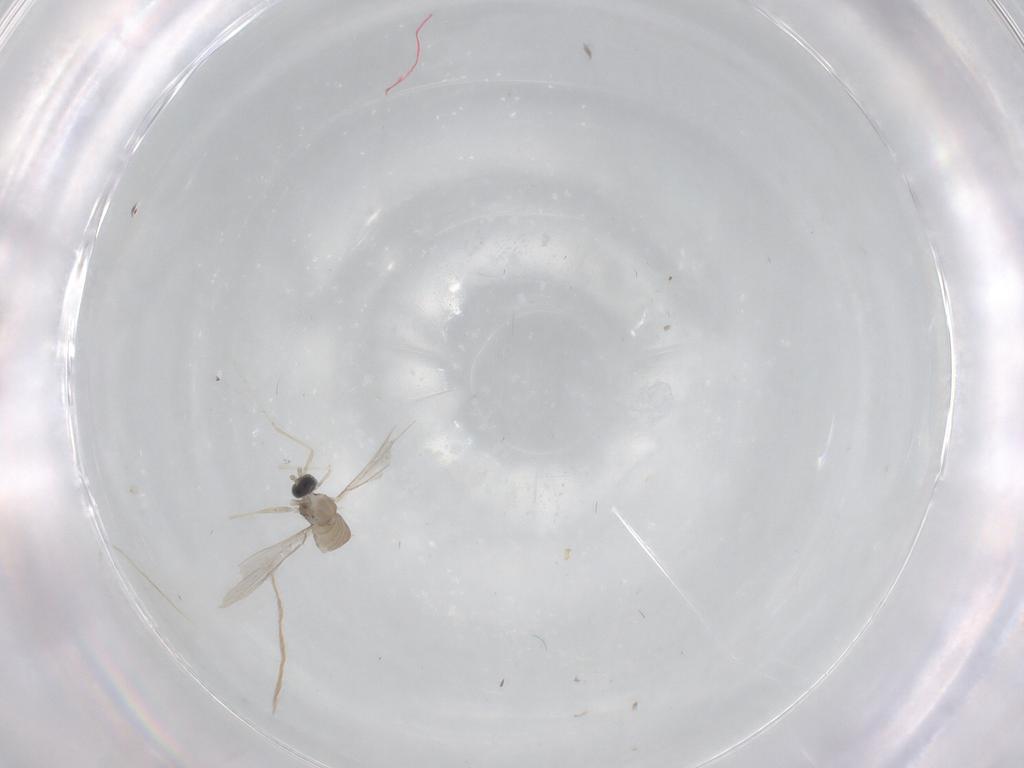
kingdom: Animalia
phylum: Arthropoda
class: Insecta
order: Diptera
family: Cecidomyiidae
